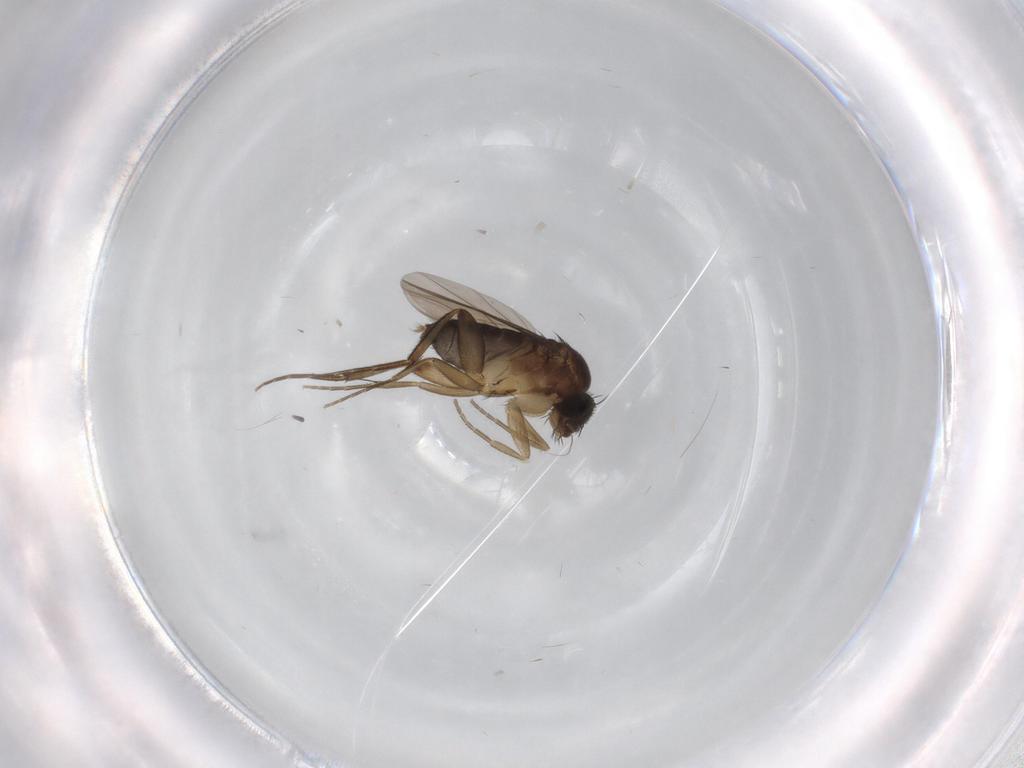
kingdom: Animalia
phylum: Arthropoda
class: Insecta
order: Diptera
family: Phoridae
